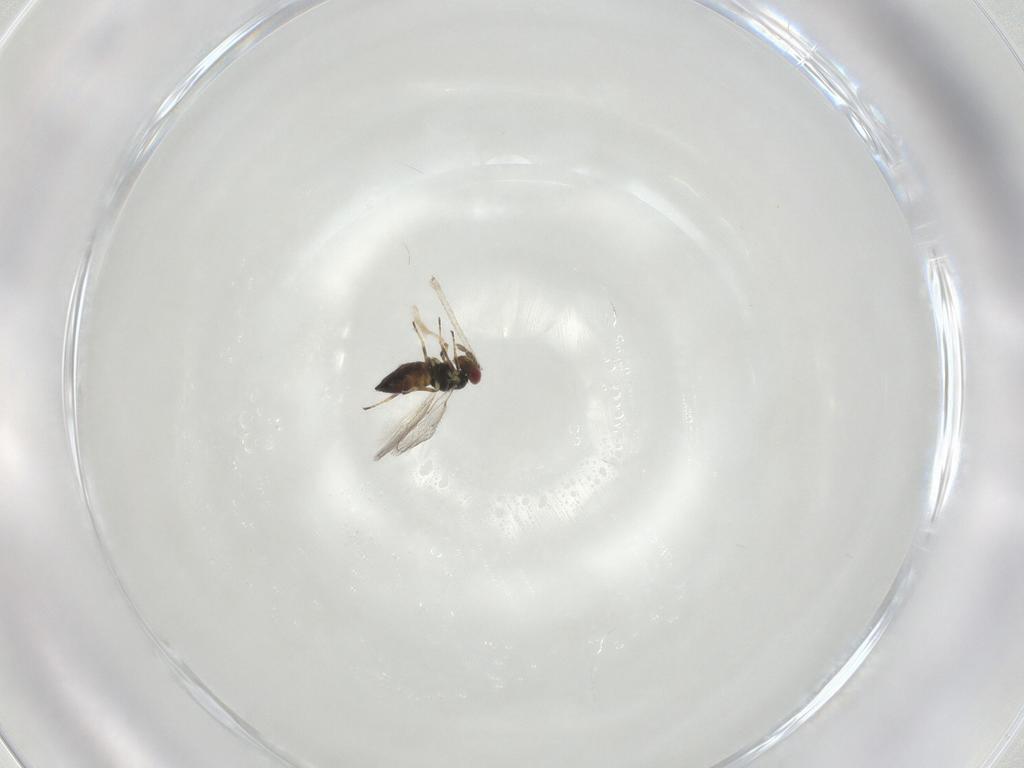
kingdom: Animalia
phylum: Arthropoda
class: Insecta
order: Hymenoptera
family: Eulophidae
